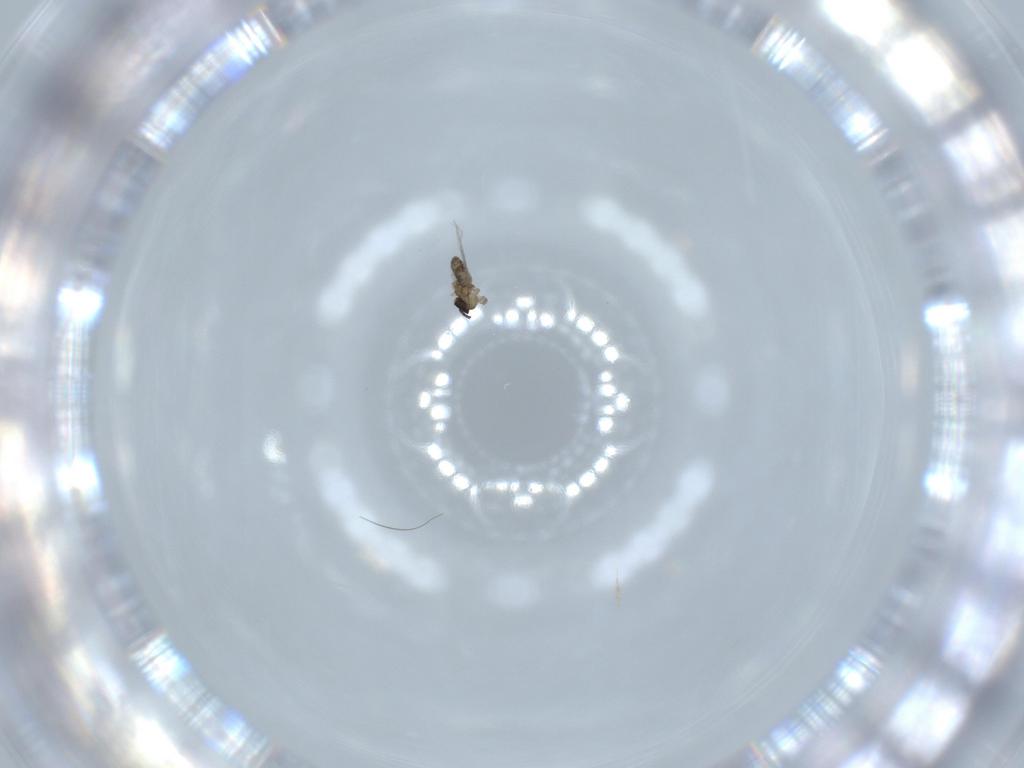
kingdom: Animalia
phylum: Arthropoda
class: Insecta
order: Diptera
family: Cecidomyiidae
